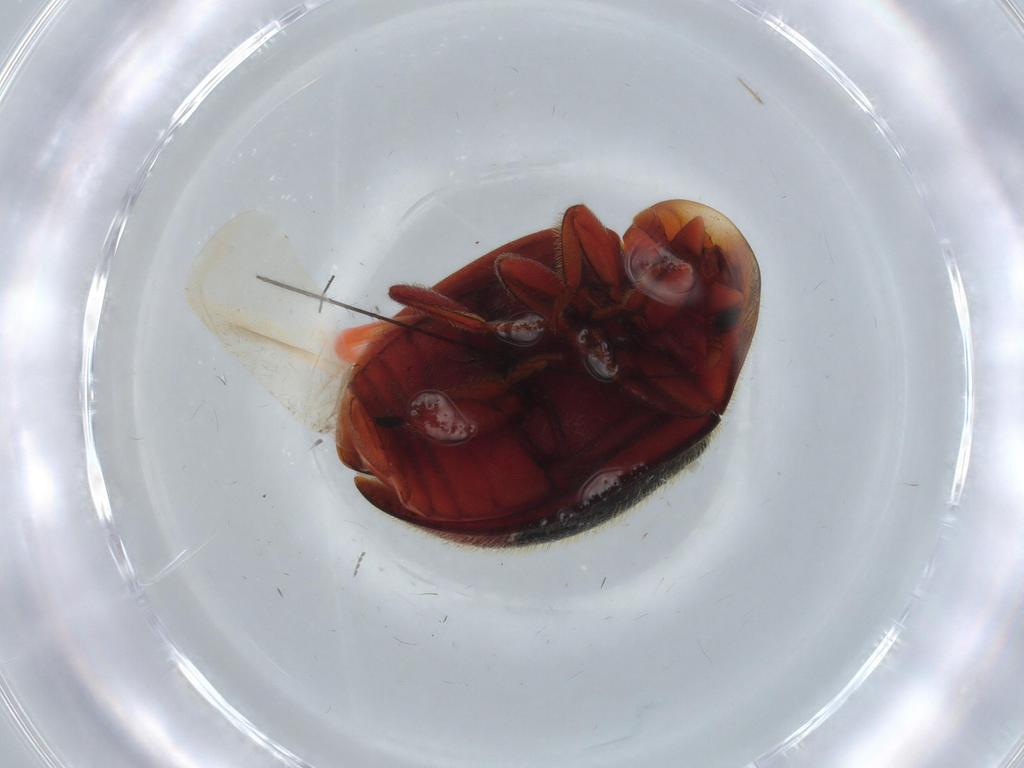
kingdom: Animalia
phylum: Arthropoda
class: Insecta
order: Coleoptera
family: Coccinellidae
